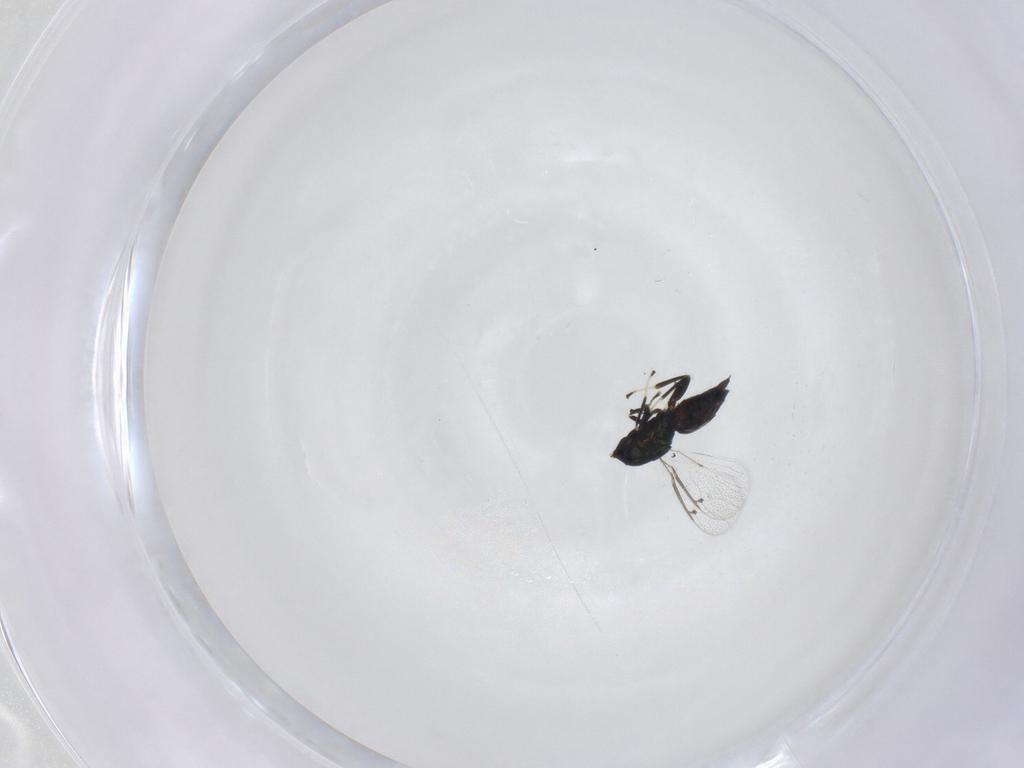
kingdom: Animalia
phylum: Arthropoda
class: Insecta
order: Hymenoptera
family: Eulophidae
